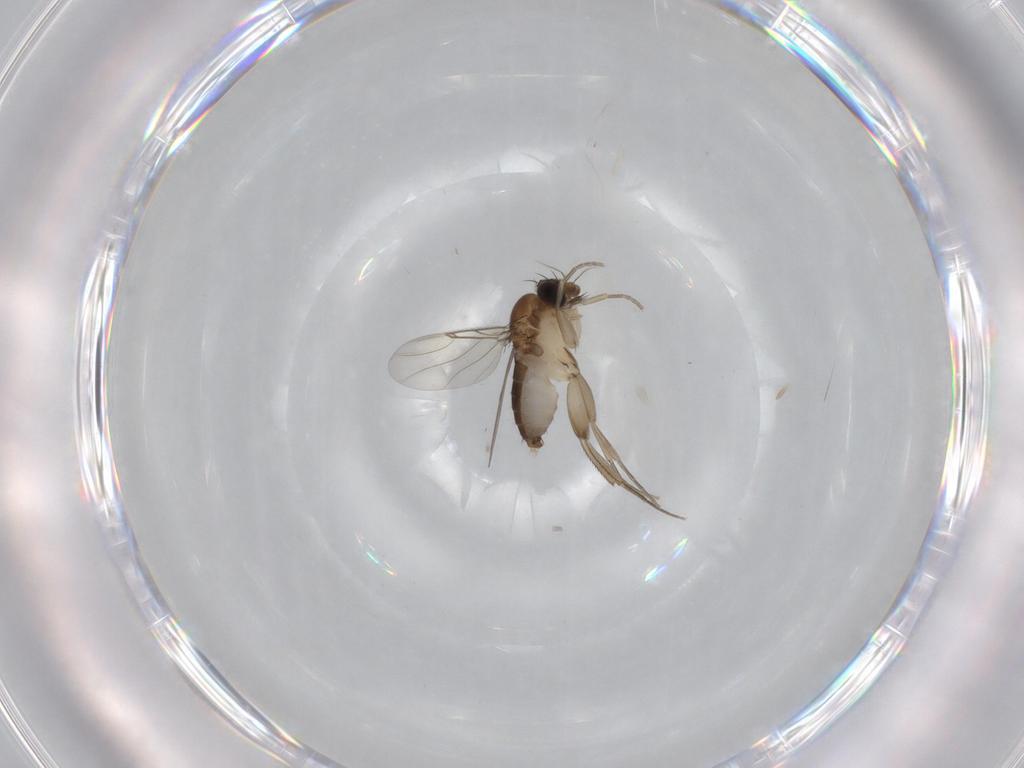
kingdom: Animalia
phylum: Arthropoda
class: Insecta
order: Diptera
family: Phoridae
